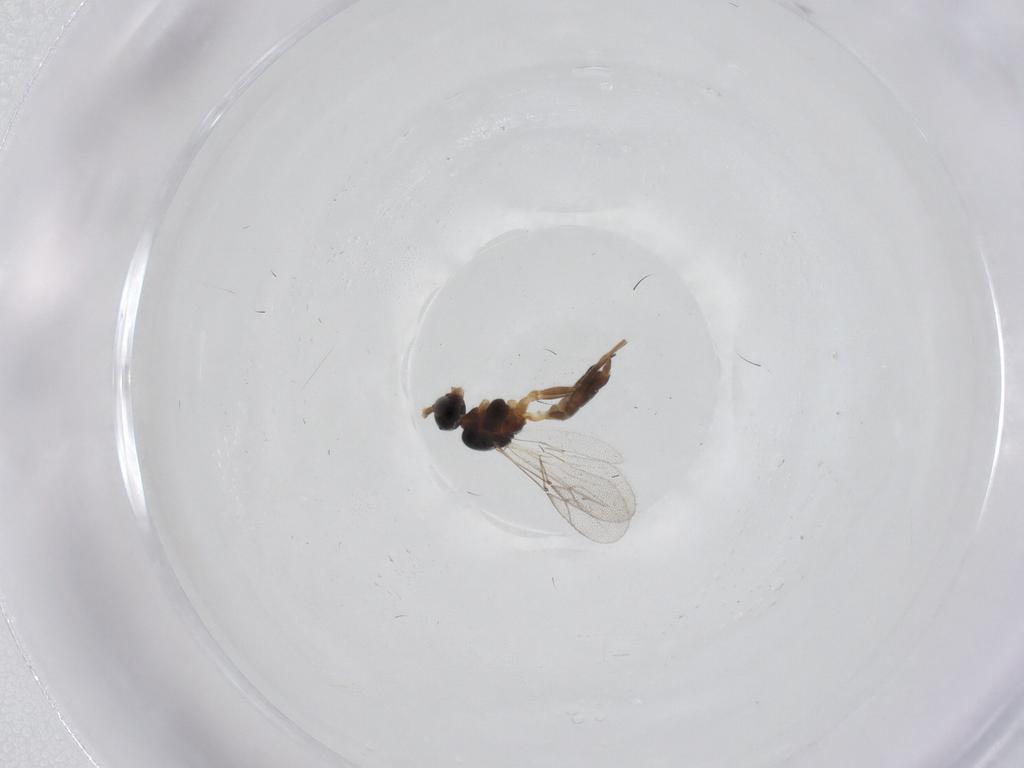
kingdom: Animalia
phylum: Arthropoda
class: Insecta
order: Hymenoptera
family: Braconidae
